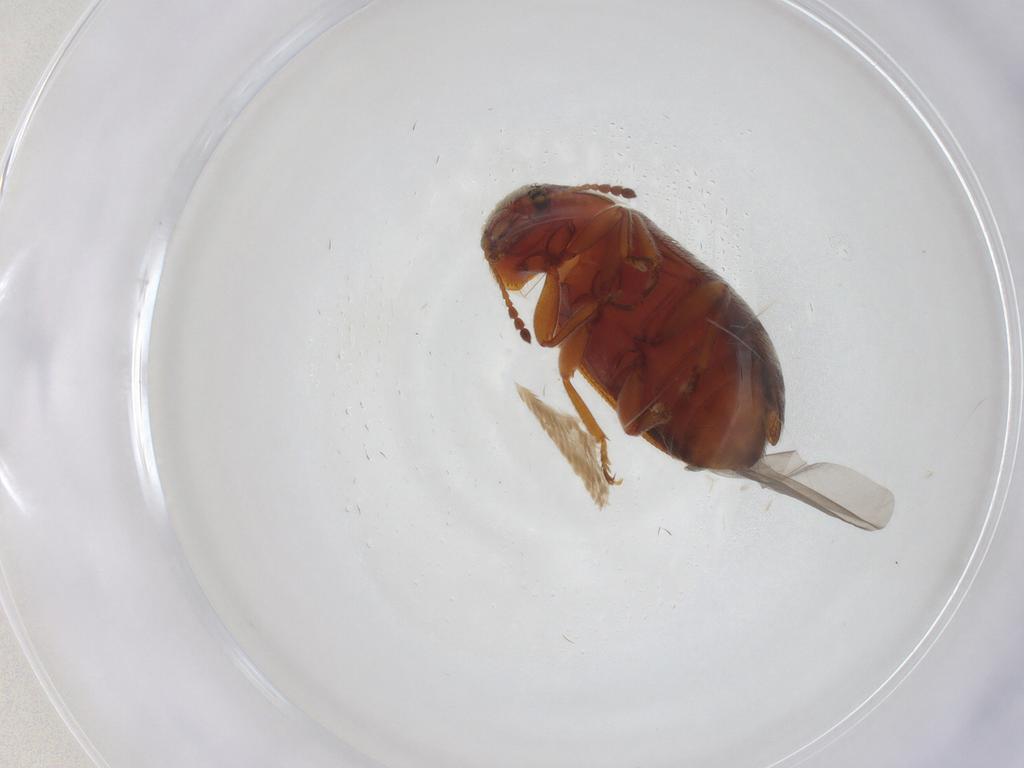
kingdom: Animalia
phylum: Arthropoda
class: Insecta
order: Coleoptera
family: Byturidae
